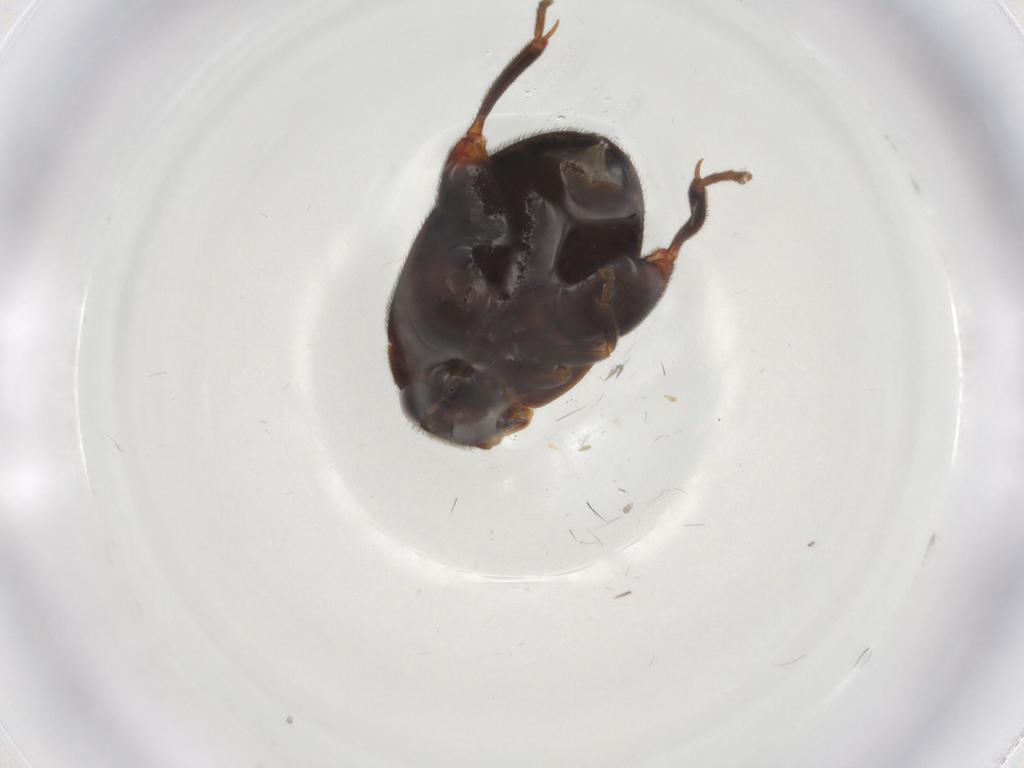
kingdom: Animalia
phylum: Arthropoda
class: Insecta
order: Coleoptera
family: Scirtidae
